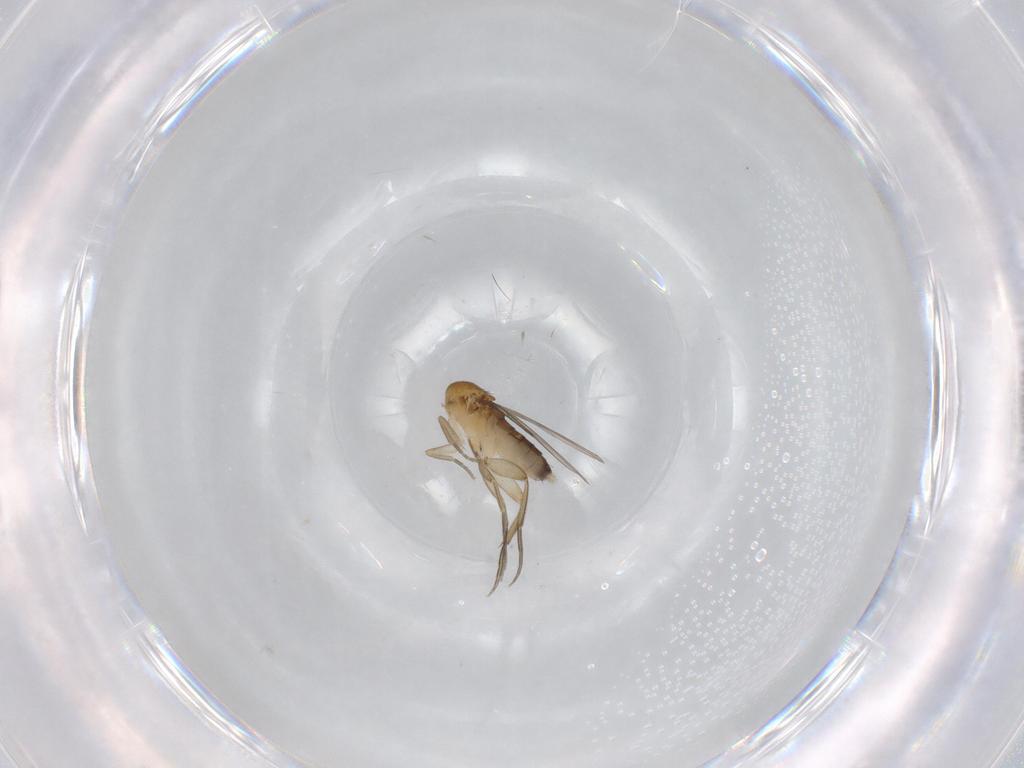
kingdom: Animalia
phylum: Arthropoda
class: Insecta
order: Diptera
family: Phoridae
